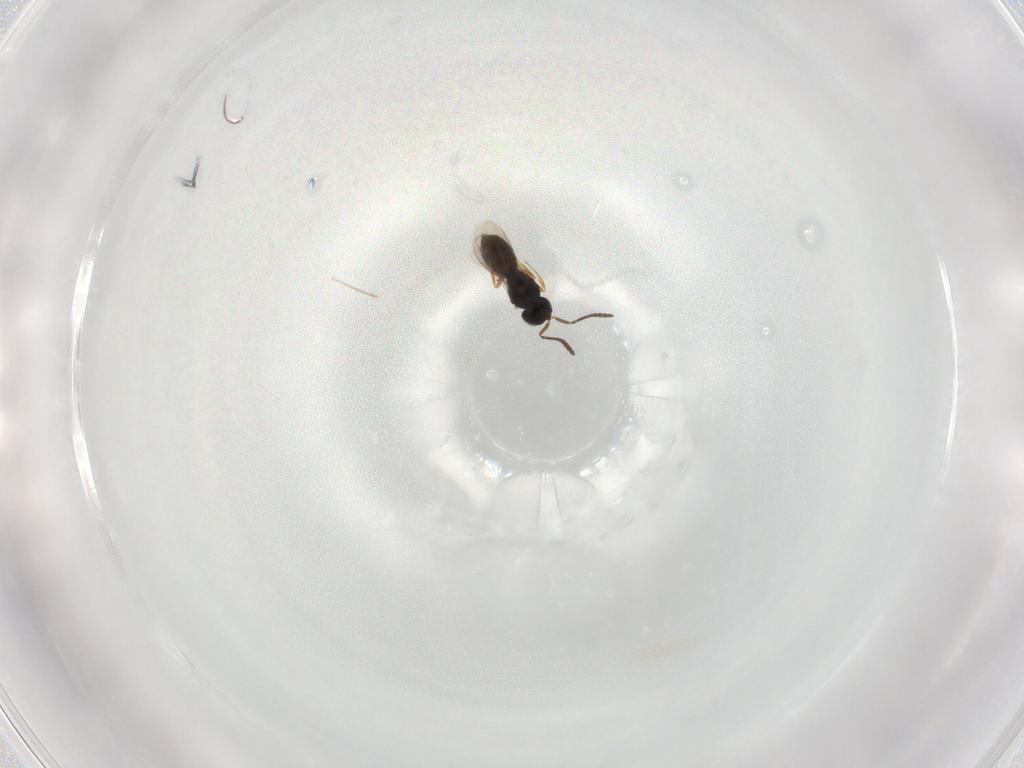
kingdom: Animalia
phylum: Arthropoda
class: Insecta
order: Hymenoptera
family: Scelionidae
